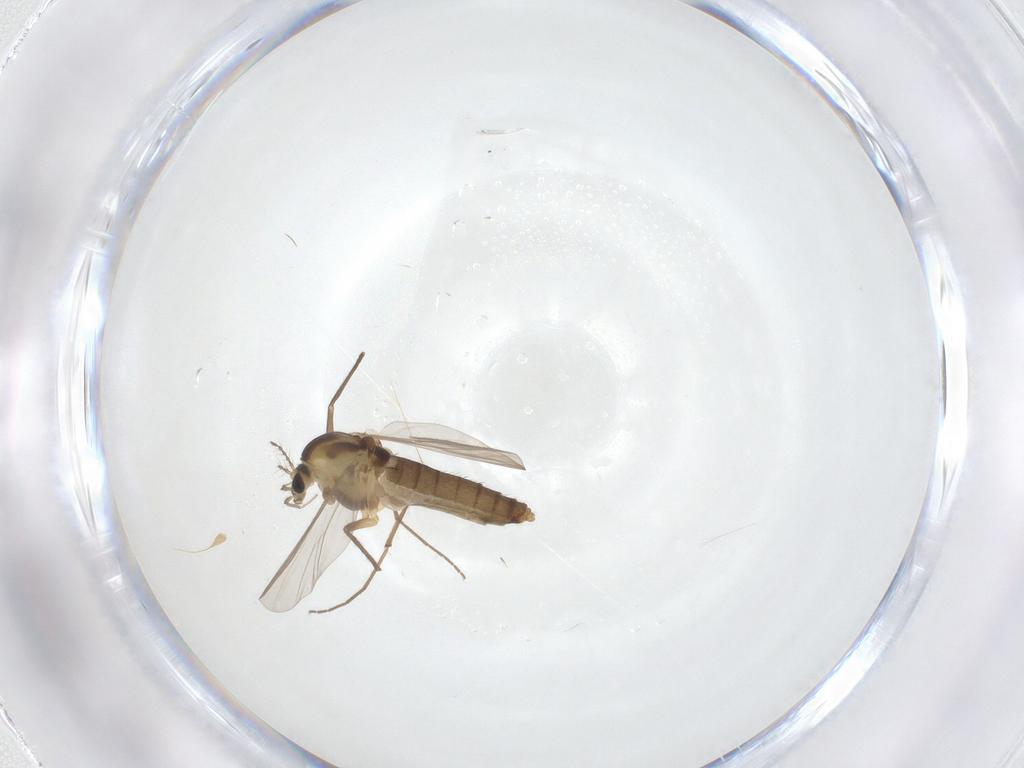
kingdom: Animalia
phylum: Arthropoda
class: Insecta
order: Diptera
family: Chironomidae
